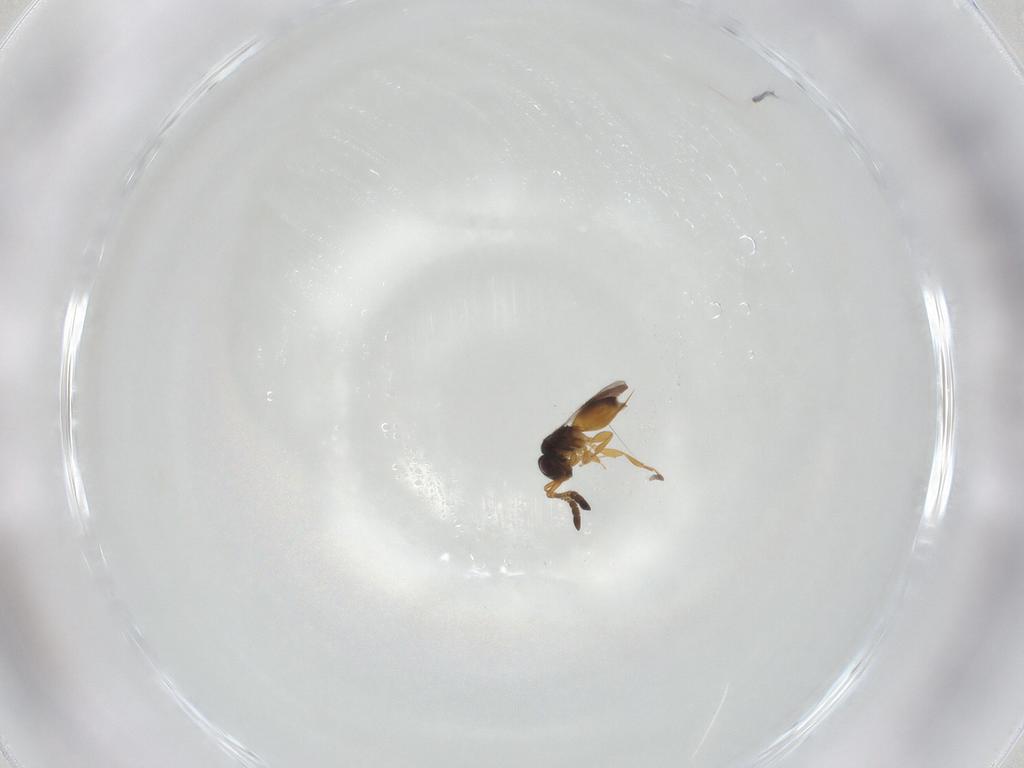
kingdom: Animalia
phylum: Arthropoda
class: Insecta
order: Hymenoptera
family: Ceraphronidae
